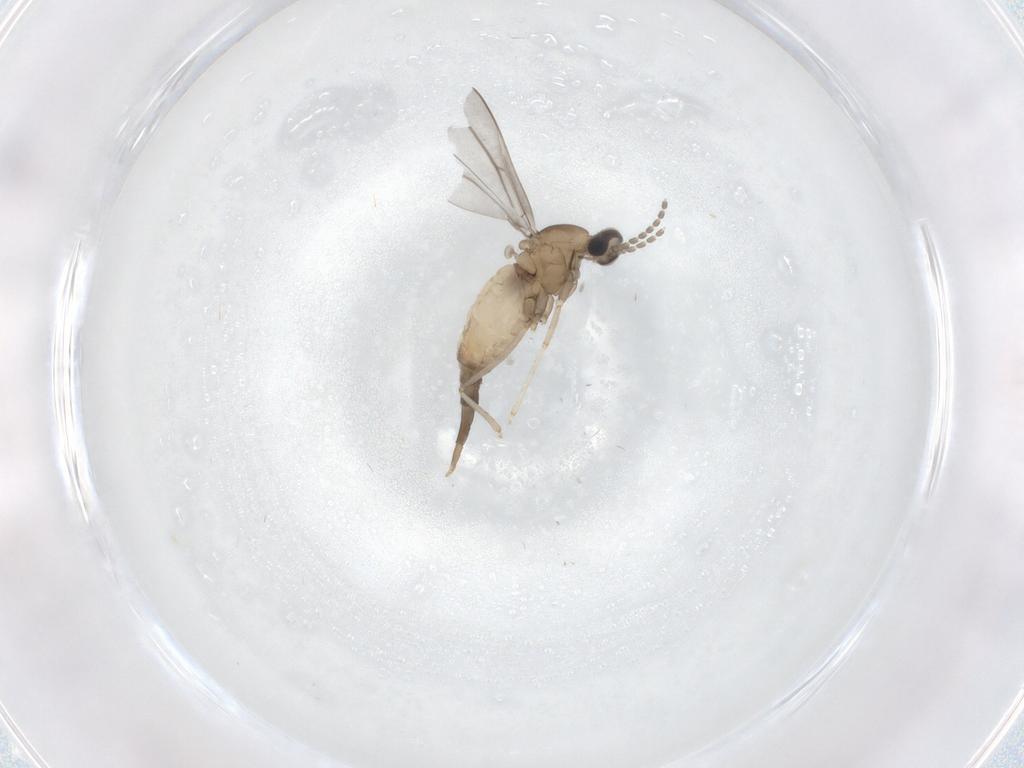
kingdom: Animalia
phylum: Arthropoda
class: Insecta
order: Diptera
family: Cecidomyiidae
